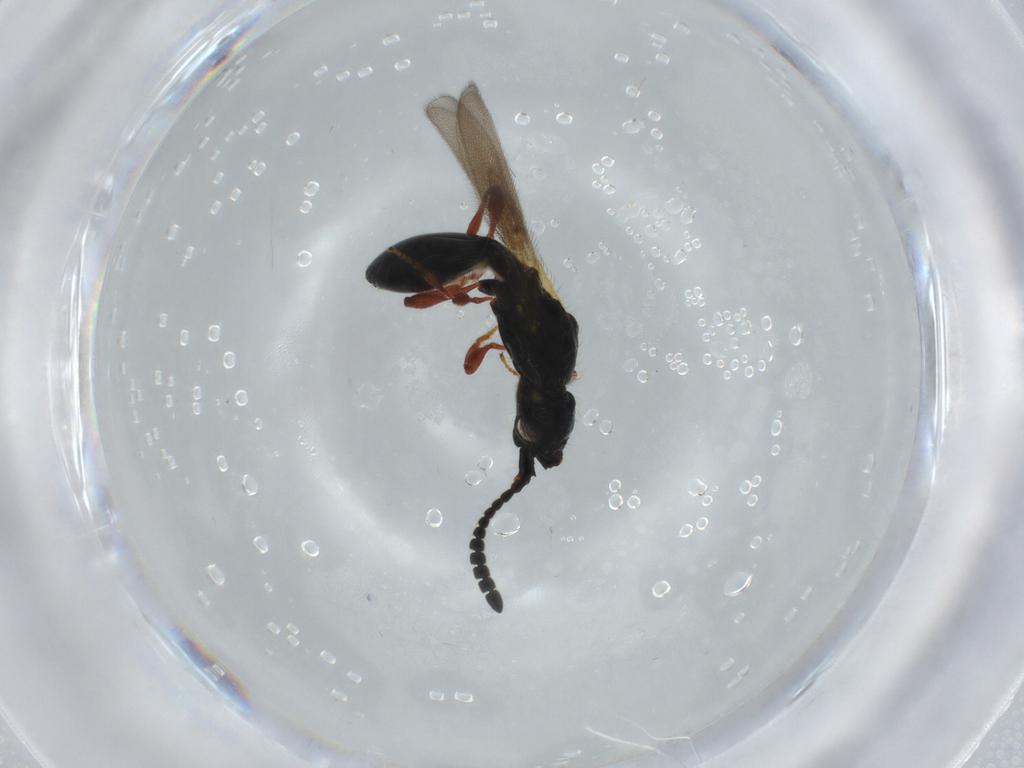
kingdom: Animalia
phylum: Arthropoda
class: Insecta
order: Hymenoptera
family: Diapriidae
